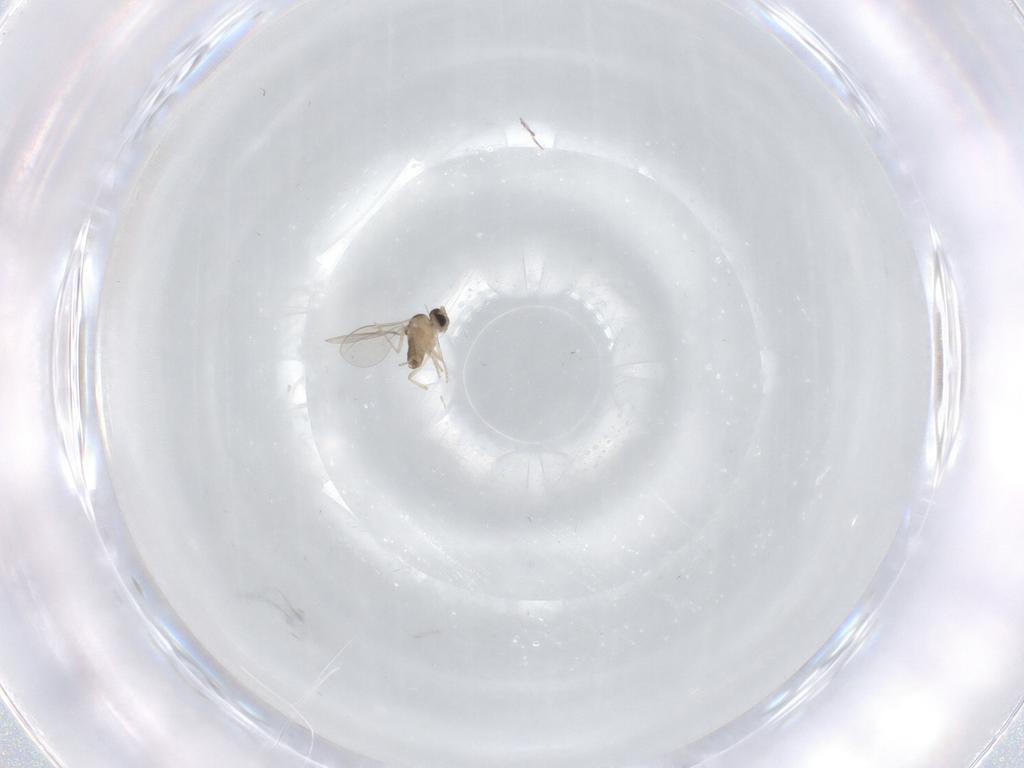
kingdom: Animalia
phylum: Arthropoda
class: Insecta
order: Diptera
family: Cecidomyiidae
